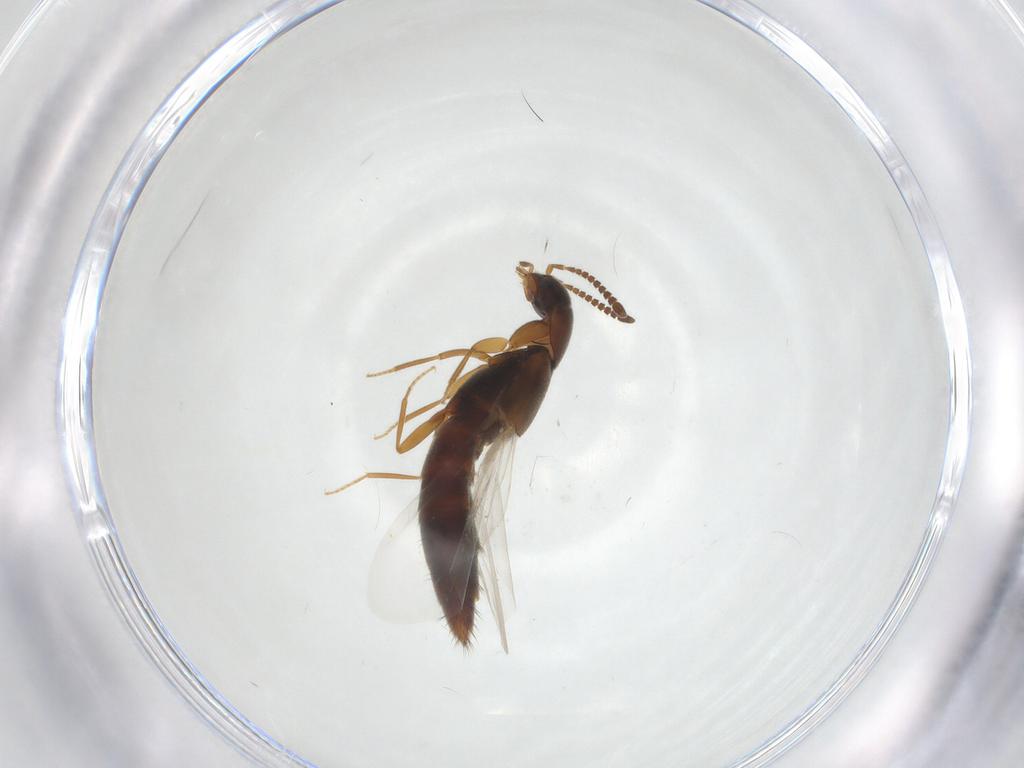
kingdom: Animalia
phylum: Arthropoda
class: Insecta
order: Coleoptera
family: Staphylinidae
